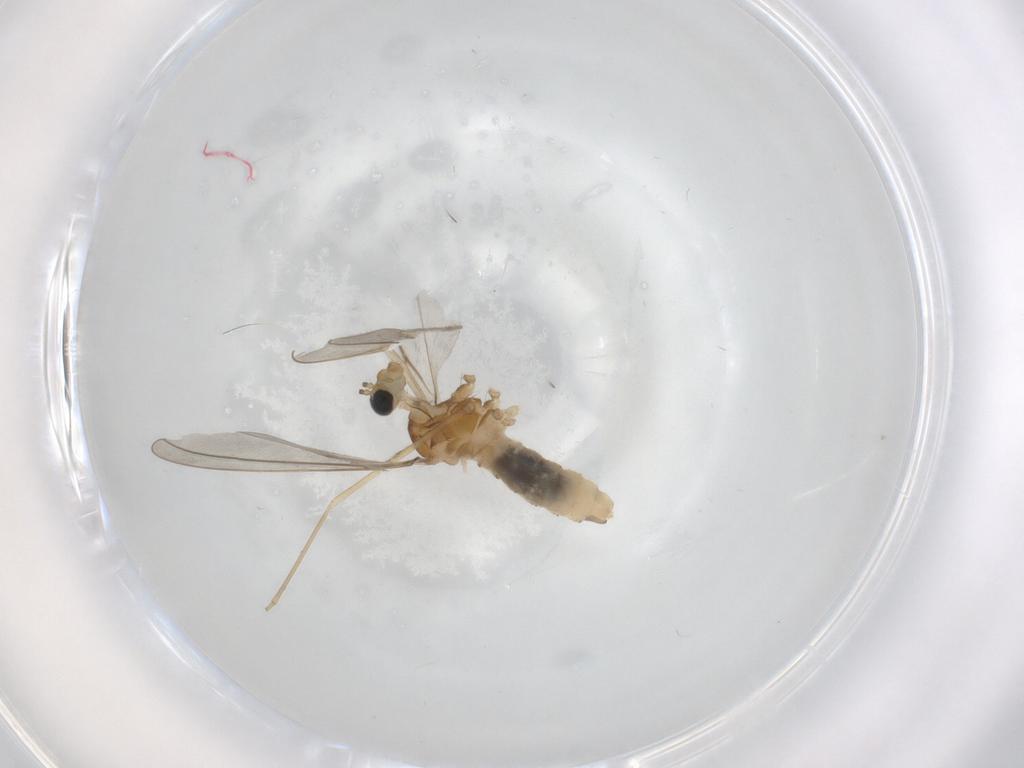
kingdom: Animalia
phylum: Arthropoda
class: Insecta
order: Diptera
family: Cecidomyiidae
